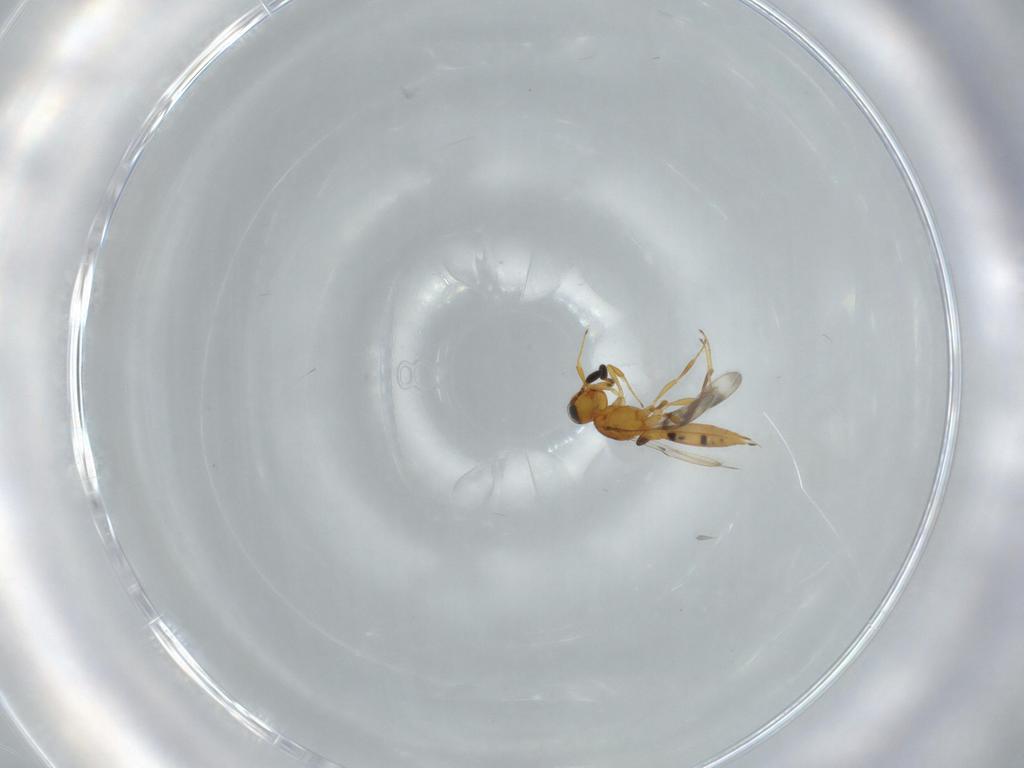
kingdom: Animalia
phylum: Arthropoda
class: Insecta
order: Hymenoptera
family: Scelionidae
